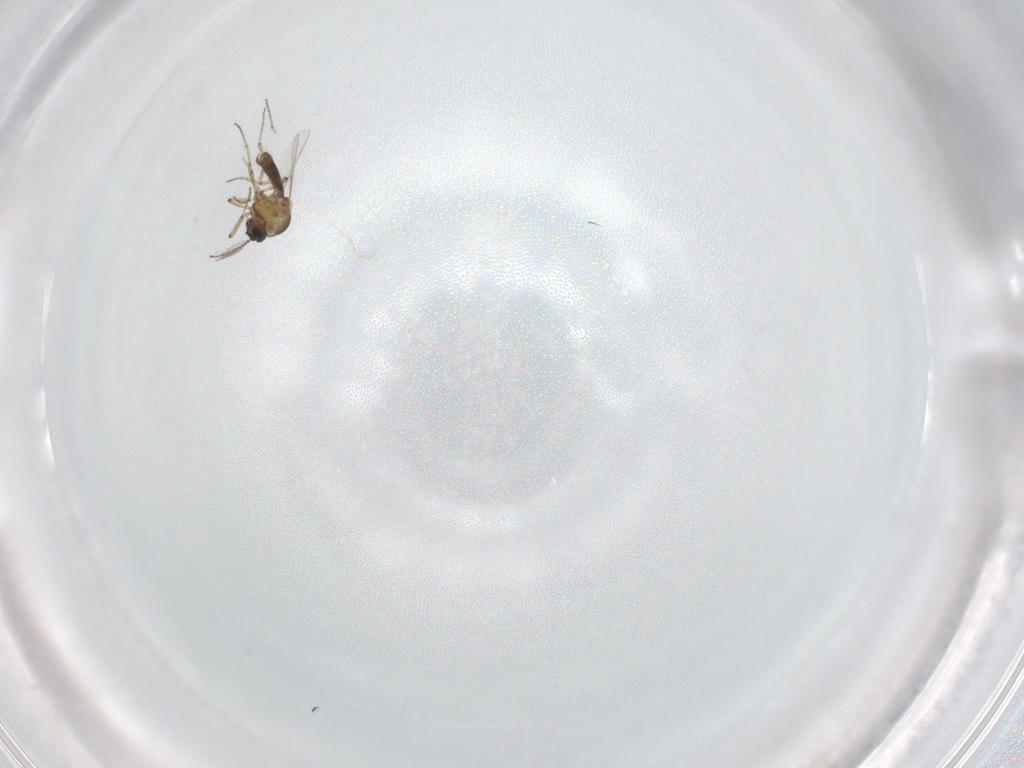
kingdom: Animalia
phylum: Arthropoda
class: Insecta
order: Diptera
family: Ceratopogonidae
